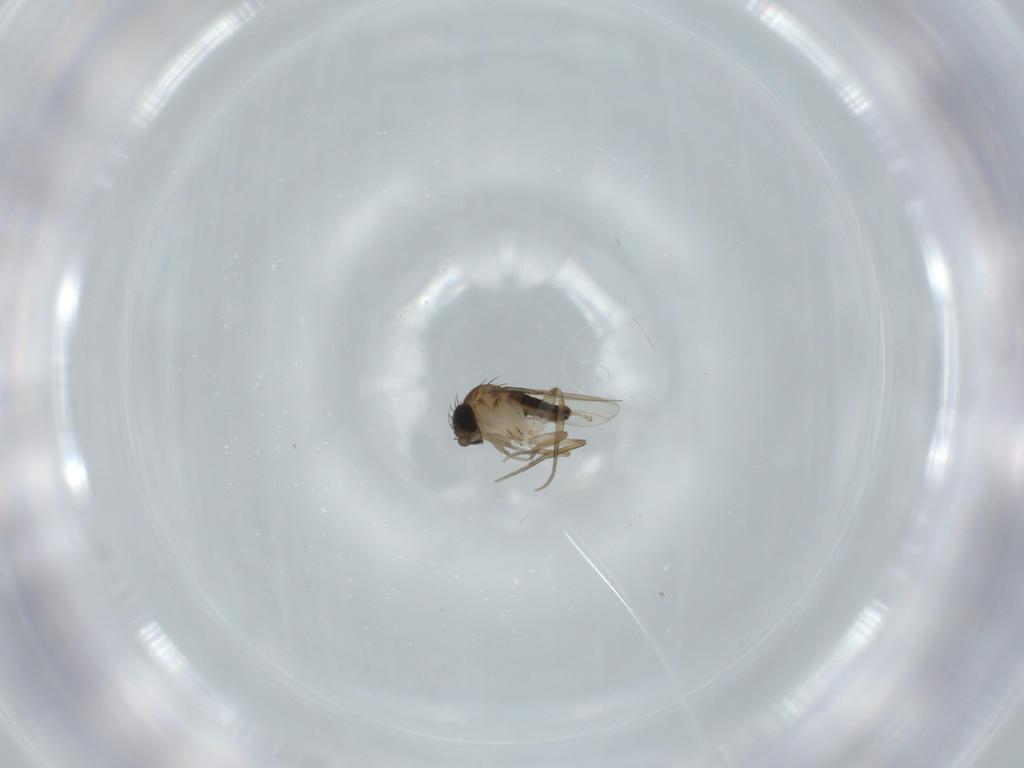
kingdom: Animalia
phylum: Arthropoda
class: Insecta
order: Diptera
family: Phoridae
